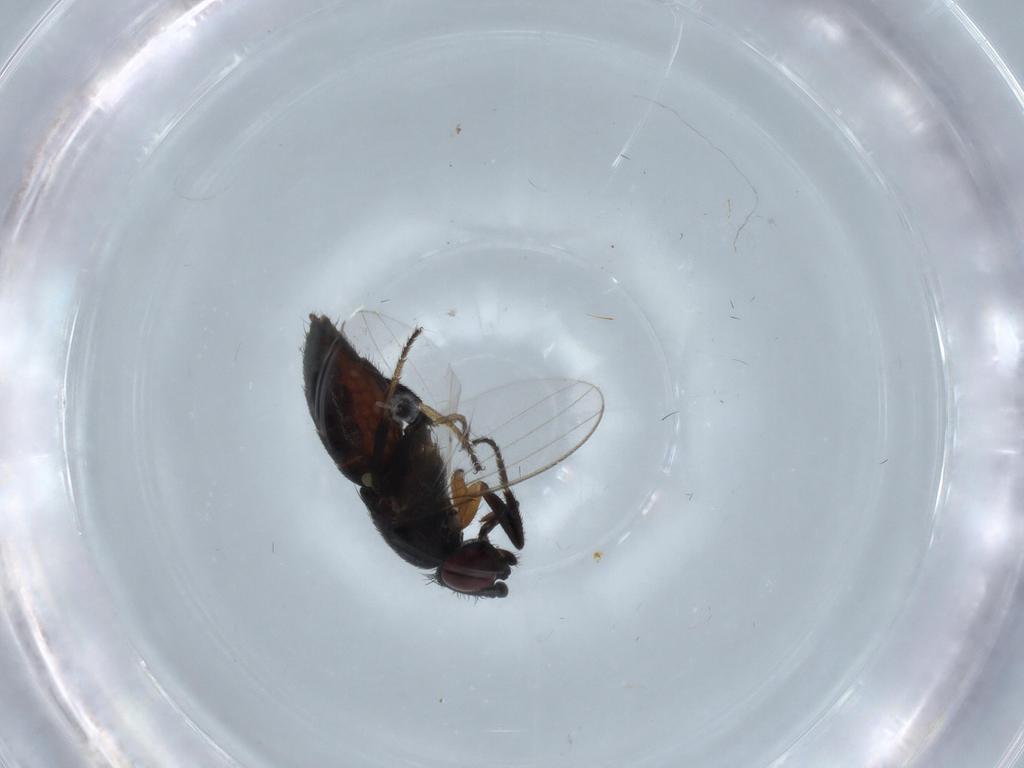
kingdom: Animalia
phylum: Arthropoda
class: Insecta
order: Diptera
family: Milichiidae
